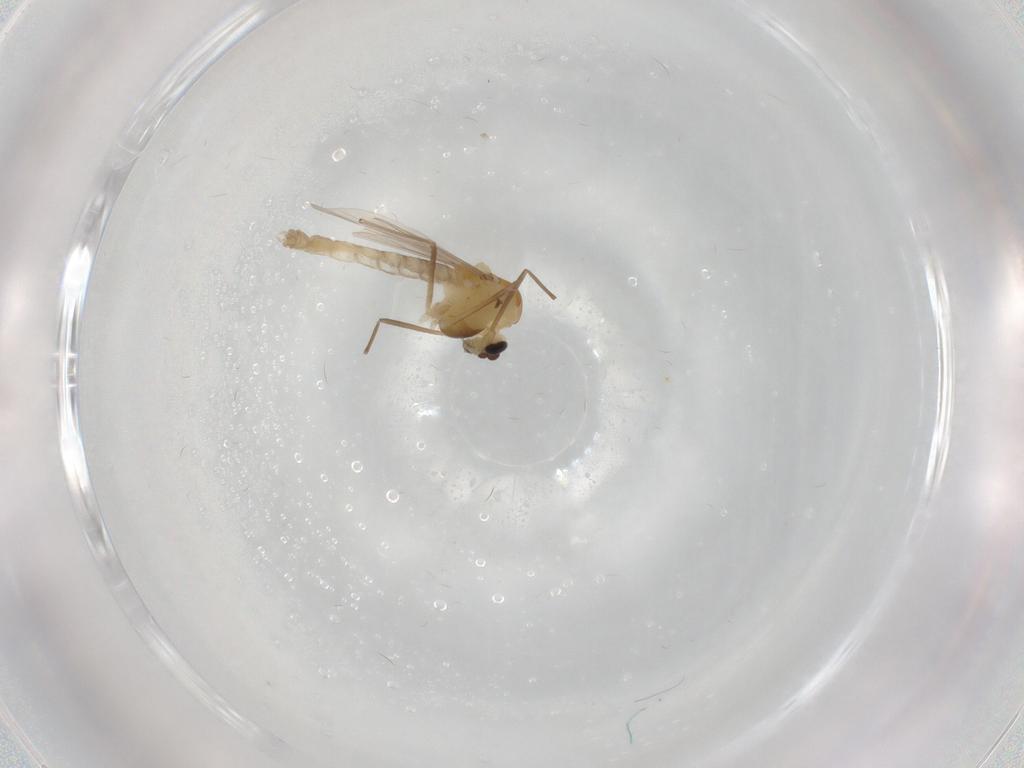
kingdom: Animalia
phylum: Arthropoda
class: Insecta
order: Diptera
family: Chironomidae
